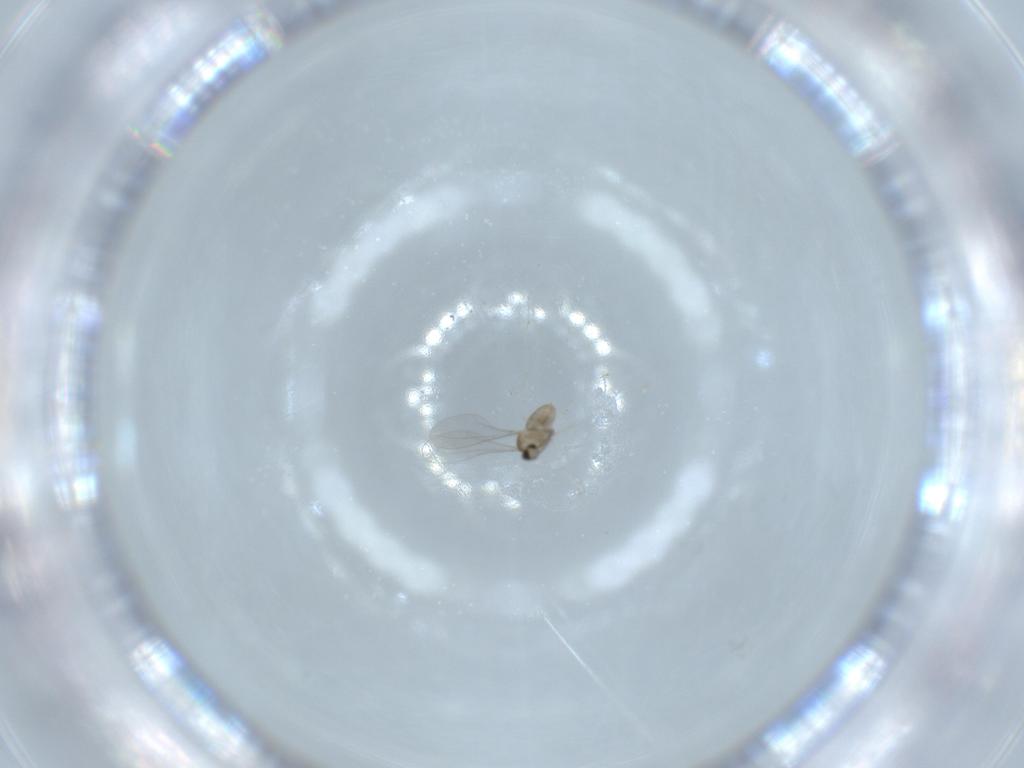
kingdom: Animalia
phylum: Arthropoda
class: Insecta
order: Diptera
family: Cecidomyiidae
